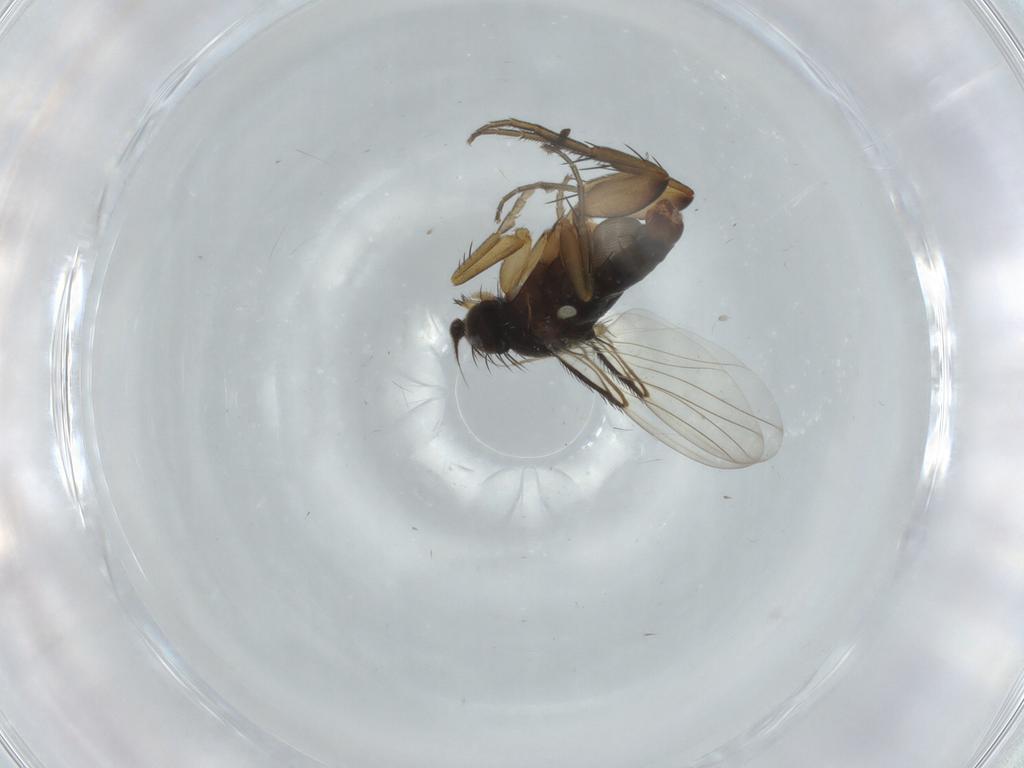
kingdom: Animalia
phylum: Arthropoda
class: Insecta
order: Diptera
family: Phoridae
